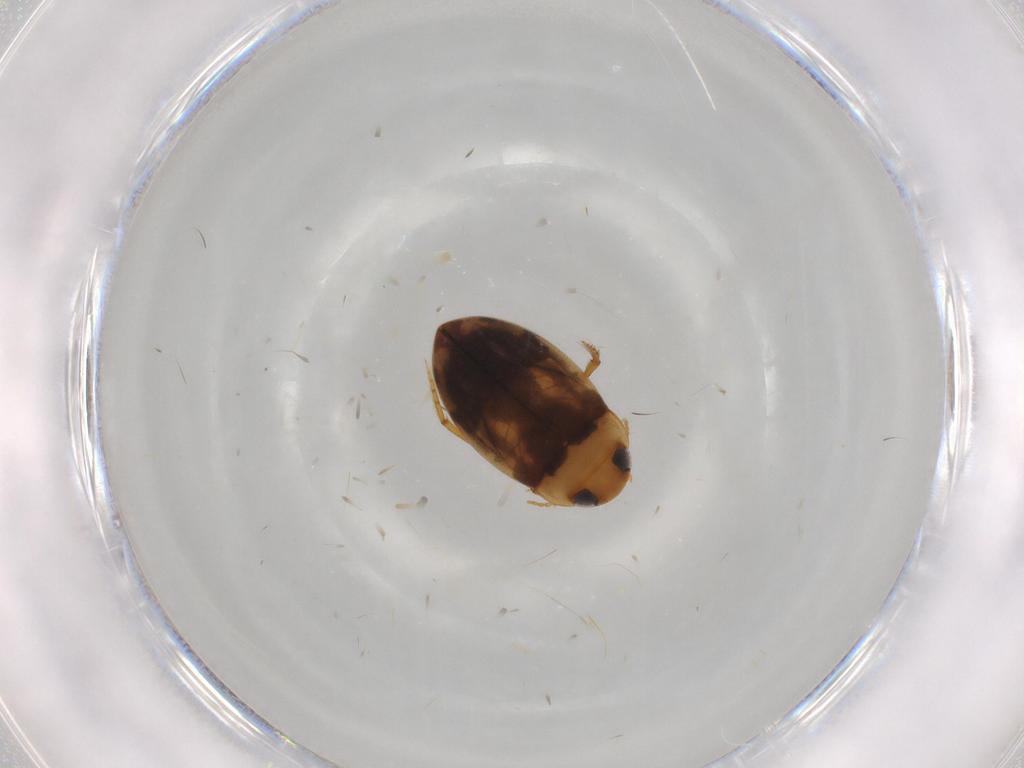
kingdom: Animalia
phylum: Arthropoda
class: Insecta
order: Coleoptera
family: Dytiscidae
